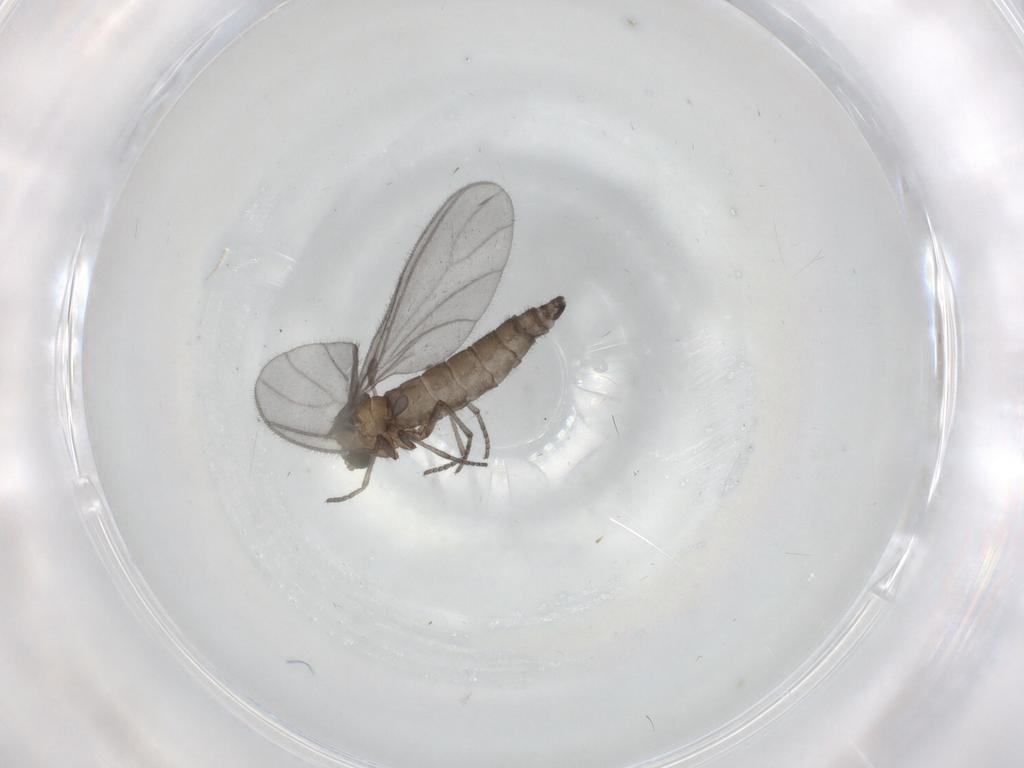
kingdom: Animalia
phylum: Arthropoda
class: Insecta
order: Diptera
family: Sciaridae
